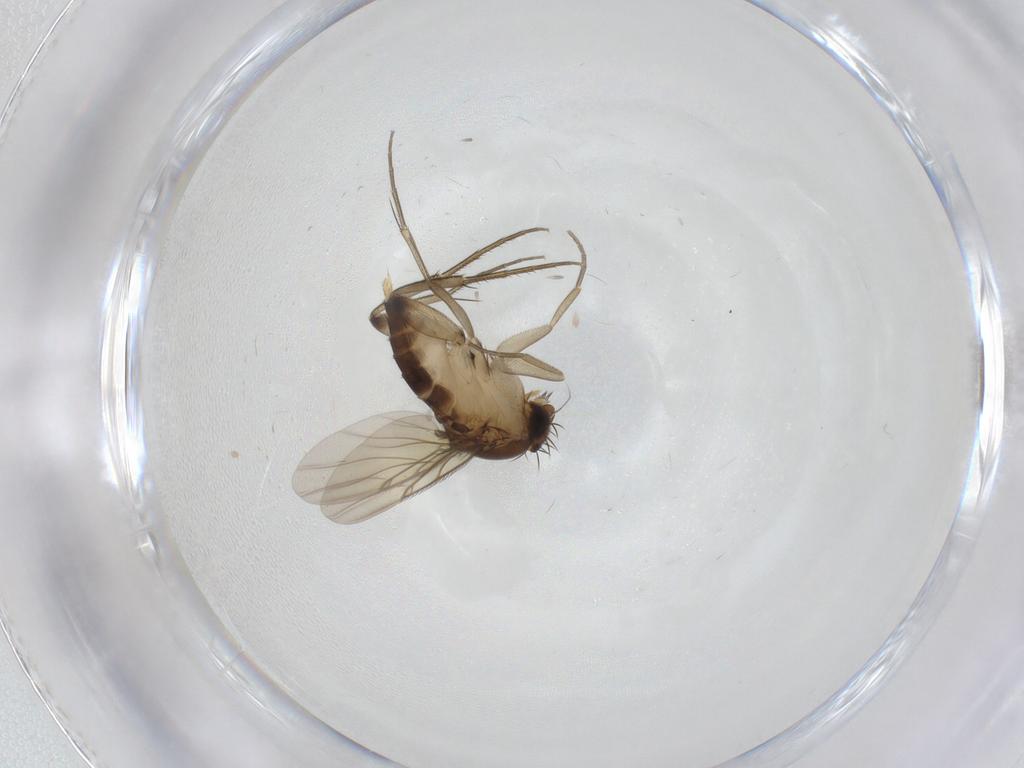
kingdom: Animalia
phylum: Arthropoda
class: Insecta
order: Diptera
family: Phoridae
